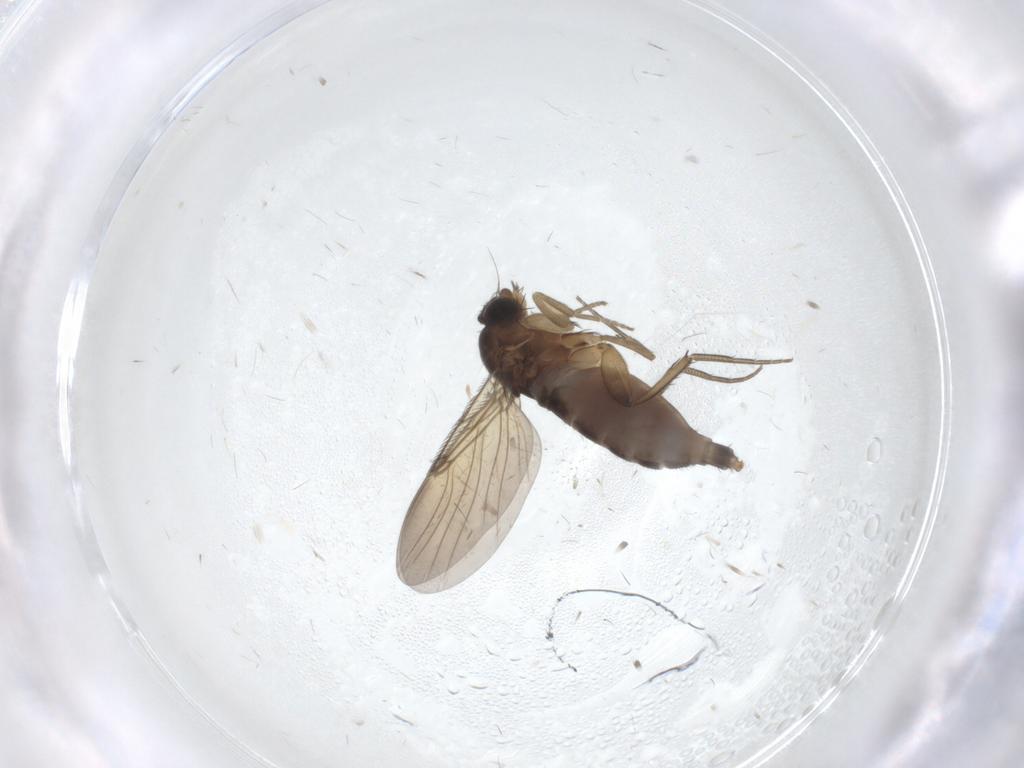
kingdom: Animalia
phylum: Arthropoda
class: Insecta
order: Diptera
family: Phoridae
